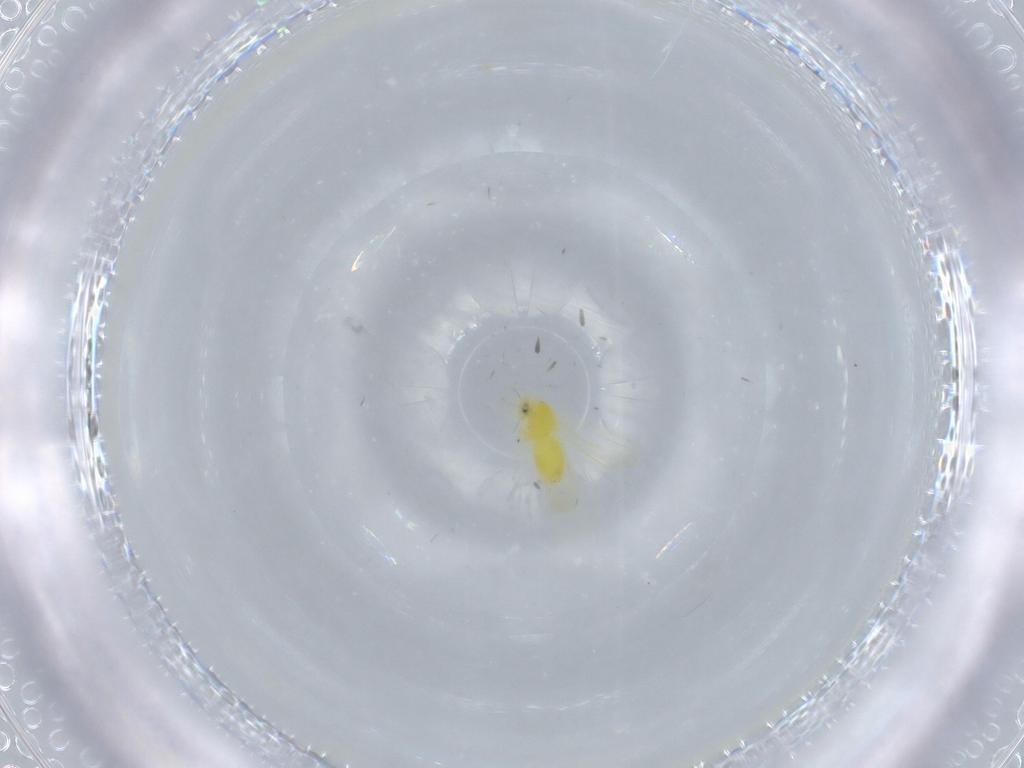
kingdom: Animalia
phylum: Arthropoda
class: Insecta
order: Hemiptera
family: Aleyrodidae
